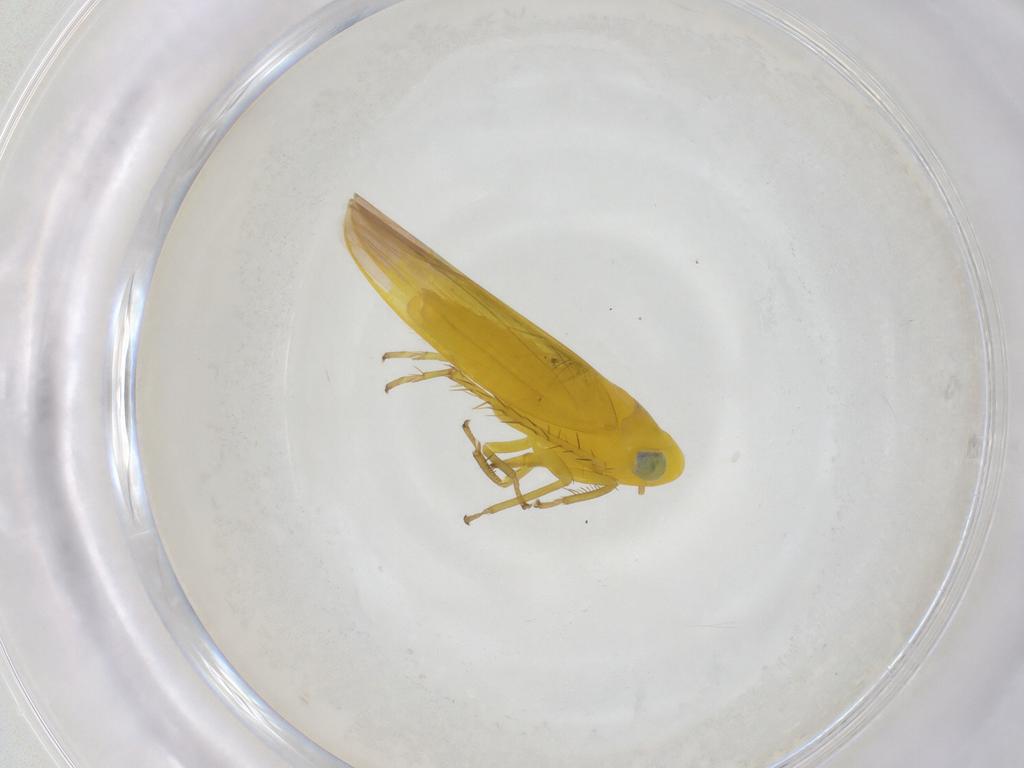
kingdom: Animalia
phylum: Arthropoda
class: Insecta
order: Hemiptera
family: Cicadellidae
